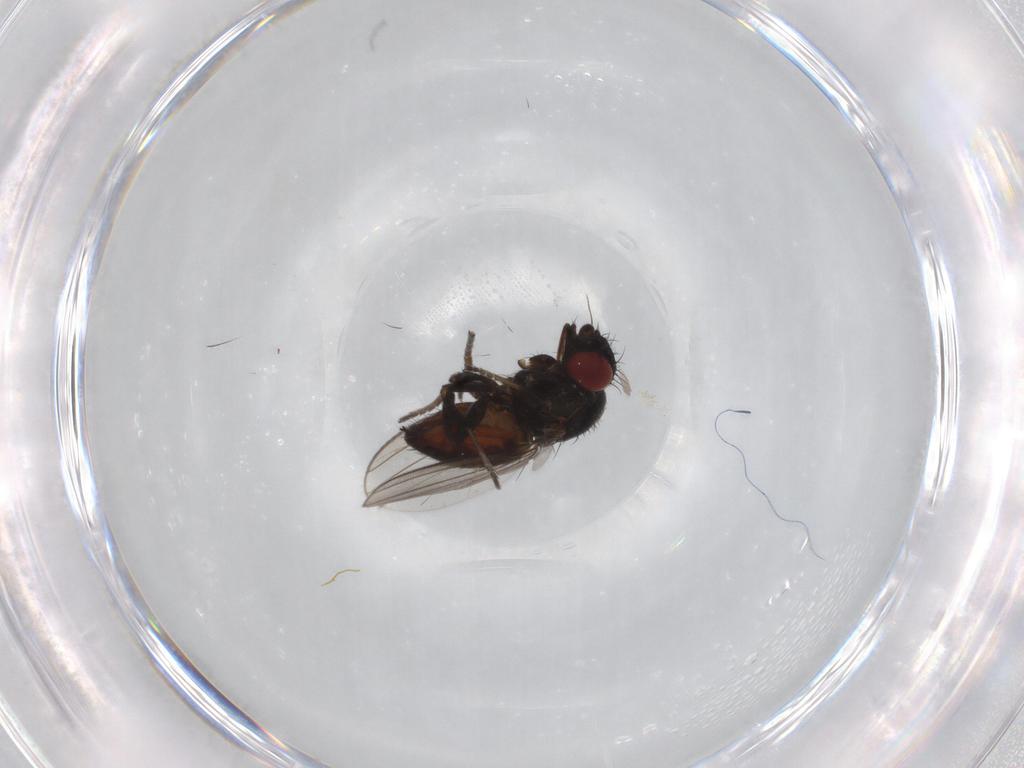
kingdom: Animalia
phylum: Arthropoda
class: Insecta
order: Diptera
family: Milichiidae
